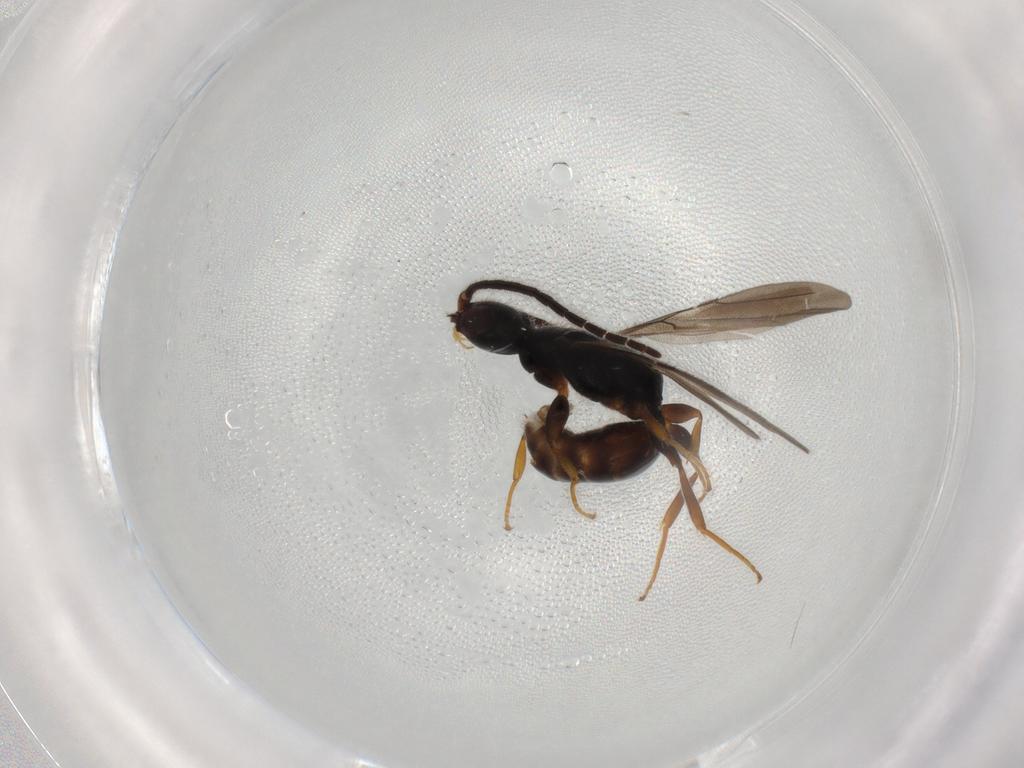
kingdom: Animalia
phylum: Arthropoda
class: Insecta
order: Hymenoptera
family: Bethylidae
